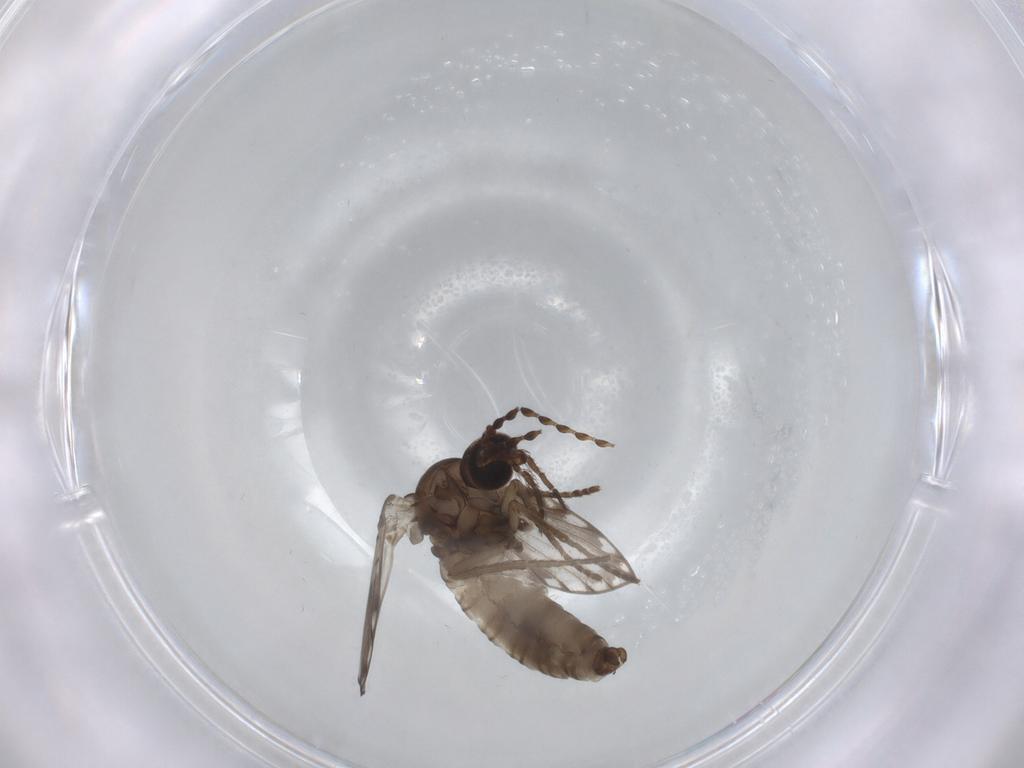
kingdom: Animalia
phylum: Arthropoda
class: Insecta
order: Diptera
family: Psychodidae
